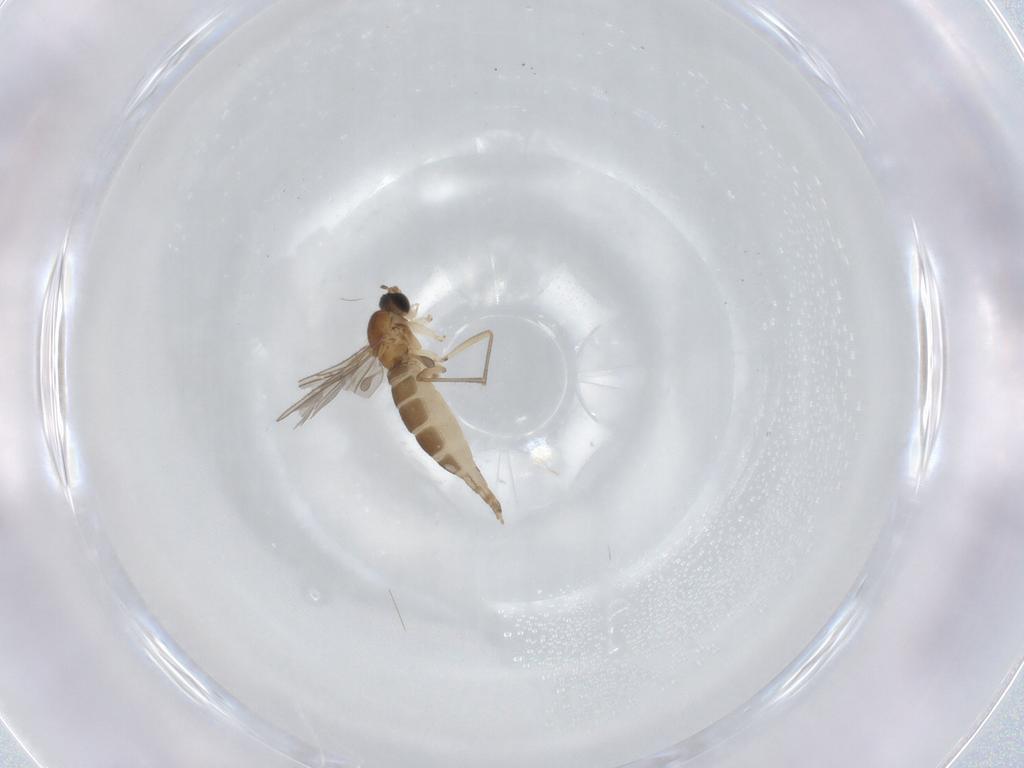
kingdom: Animalia
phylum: Arthropoda
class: Insecta
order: Diptera
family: Sciaridae
